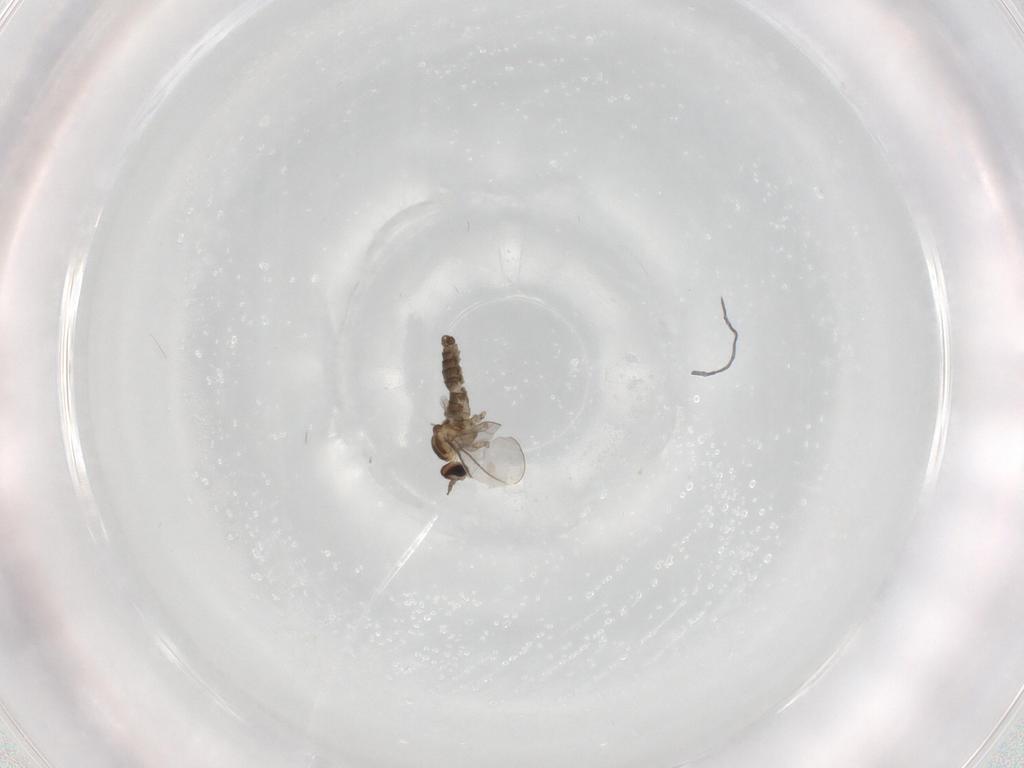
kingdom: Animalia
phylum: Arthropoda
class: Insecta
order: Diptera
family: Cecidomyiidae
